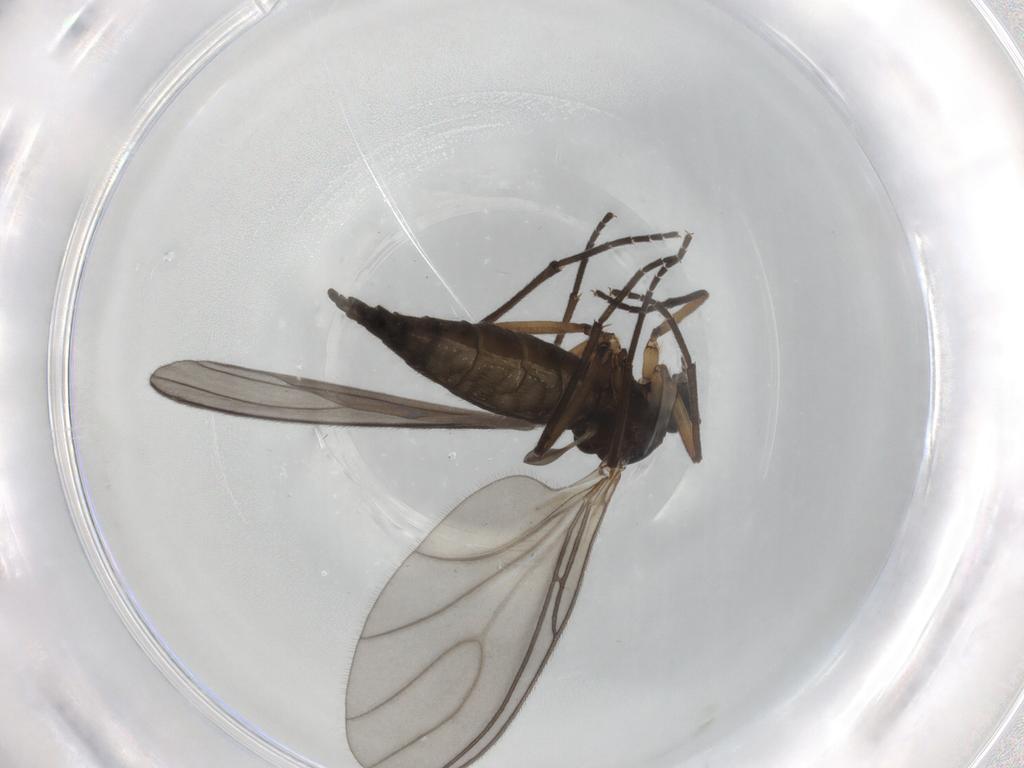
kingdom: Animalia
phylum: Arthropoda
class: Insecta
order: Diptera
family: Sciaridae
